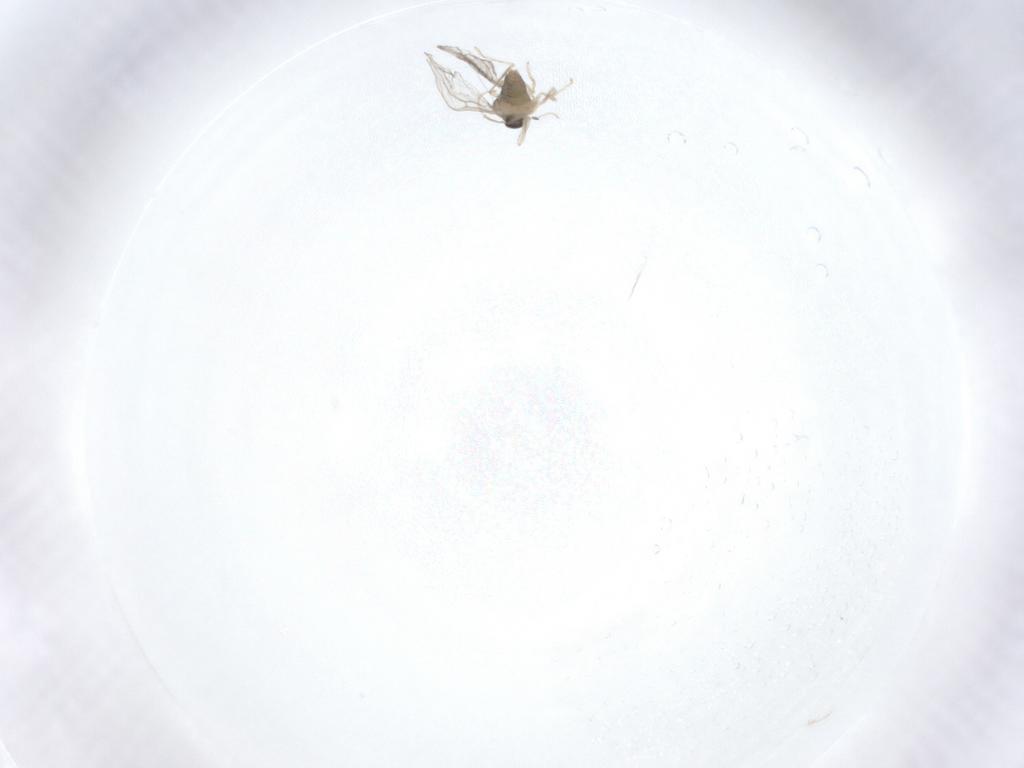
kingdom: Animalia
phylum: Arthropoda
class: Insecta
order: Diptera
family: Cecidomyiidae
